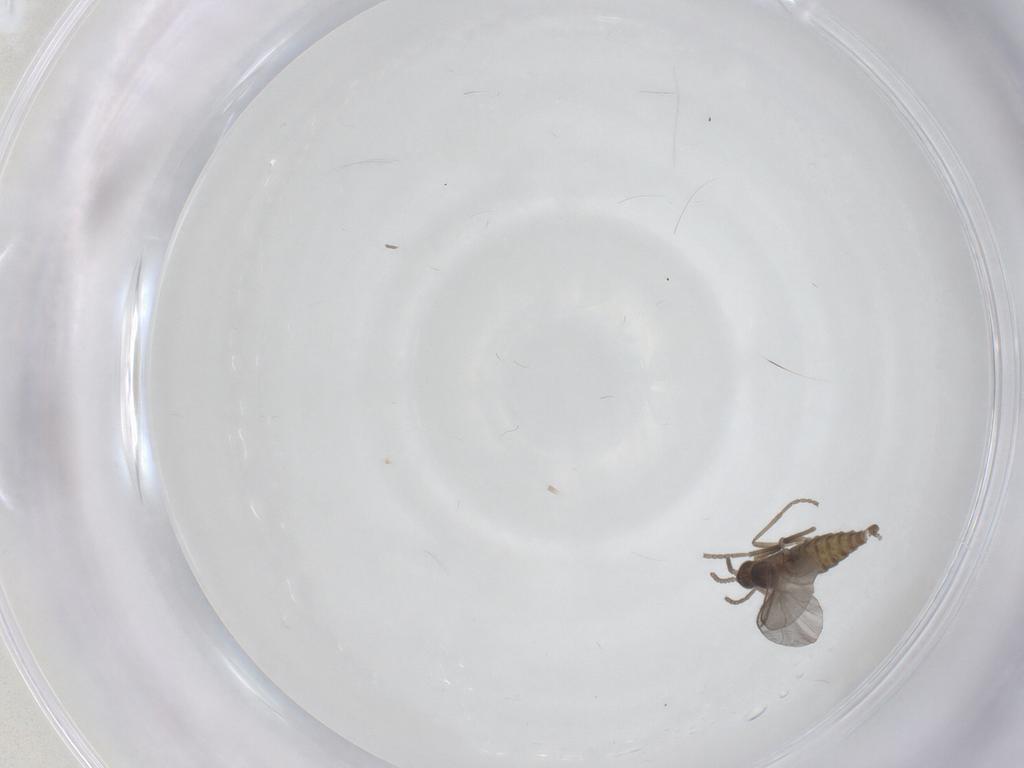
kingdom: Animalia
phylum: Arthropoda
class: Insecta
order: Diptera
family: Cecidomyiidae
